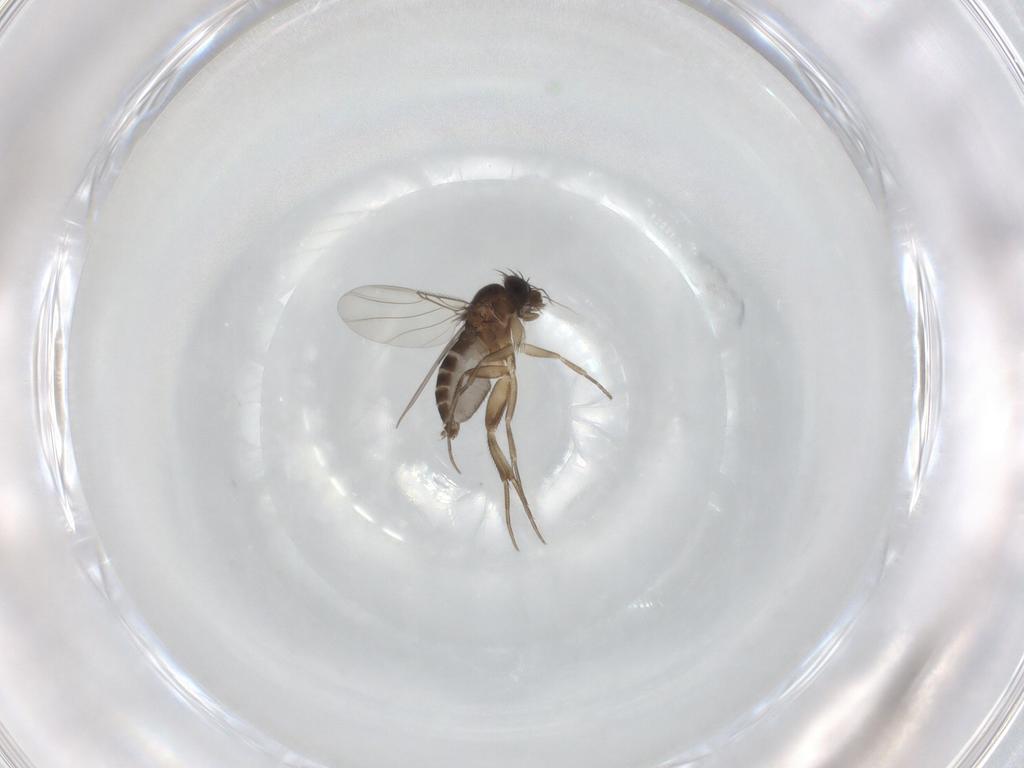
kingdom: Animalia
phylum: Arthropoda
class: Insecta
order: Diptera
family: Phoridae
